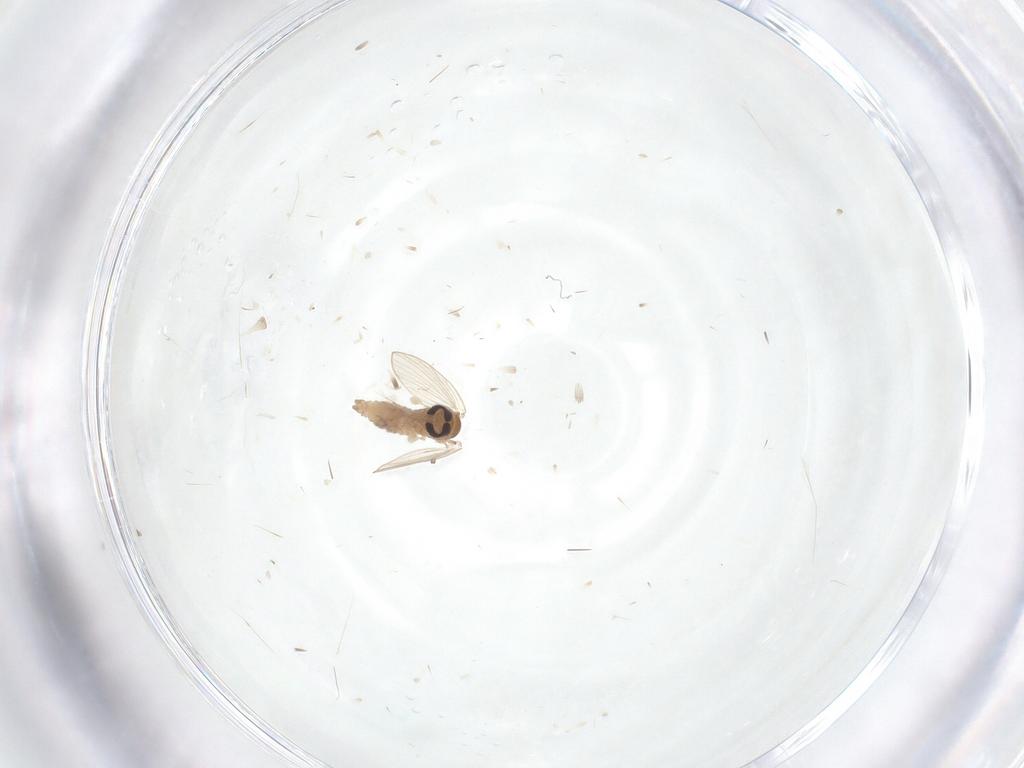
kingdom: Animalia
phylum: Arthropoda
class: Insecta
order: Diptera
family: Psychodidae
